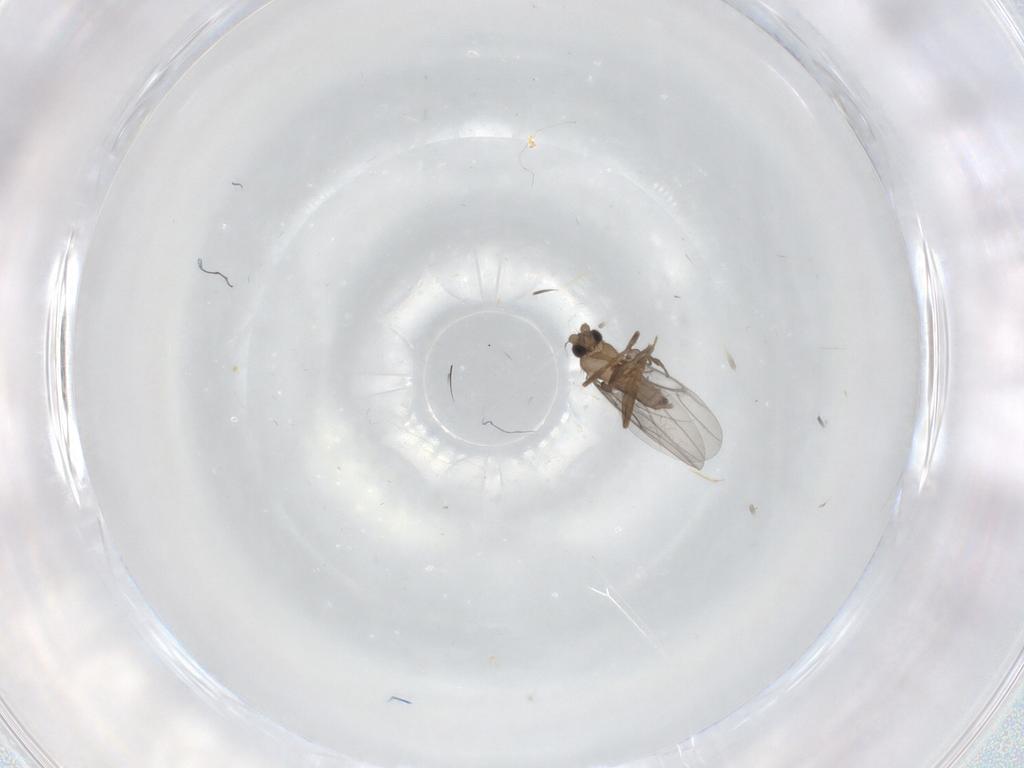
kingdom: Animalia
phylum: Arthropoda
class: Insecta
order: Diptera
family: Cecidomyiidae
